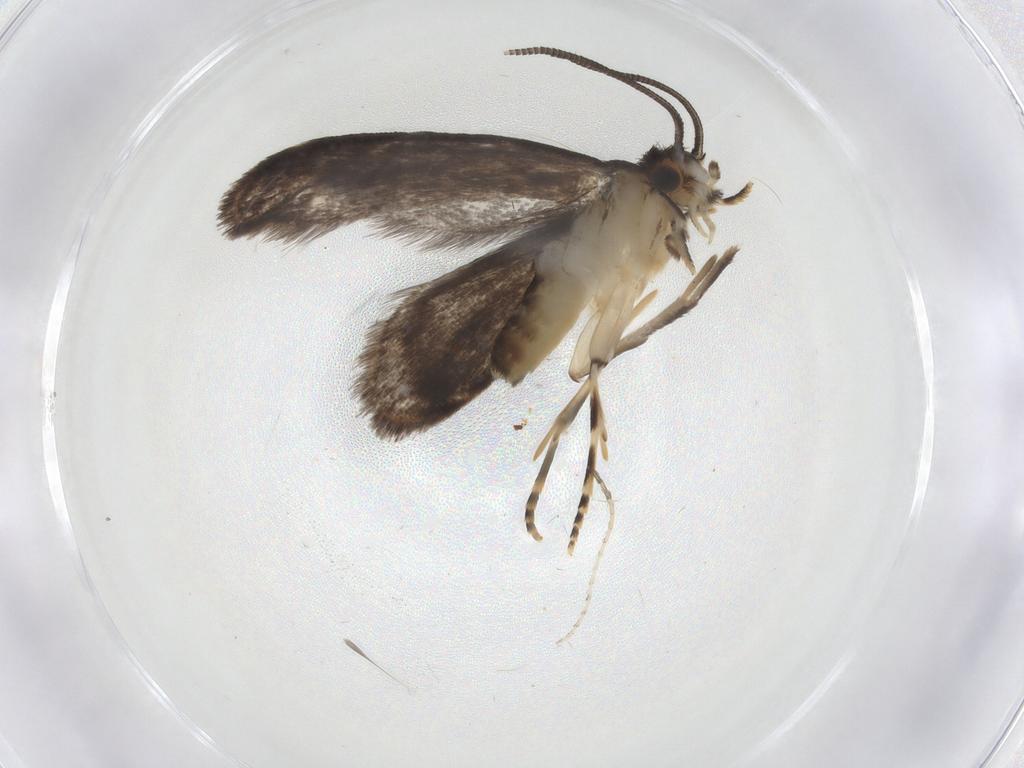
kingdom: Animalia
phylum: Arthropoda
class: Insecta
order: Lepidoptera
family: Dryadaulidae
